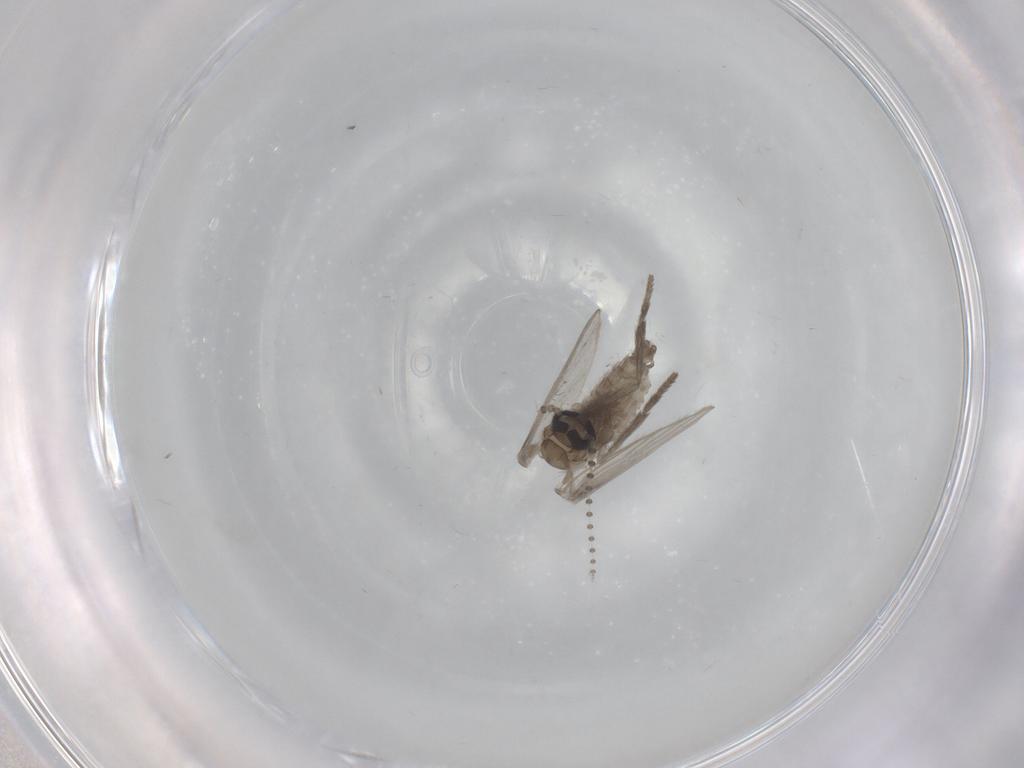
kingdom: Animalia
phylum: Arthropoda
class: Insecta
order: Diptera
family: Psychodidae
